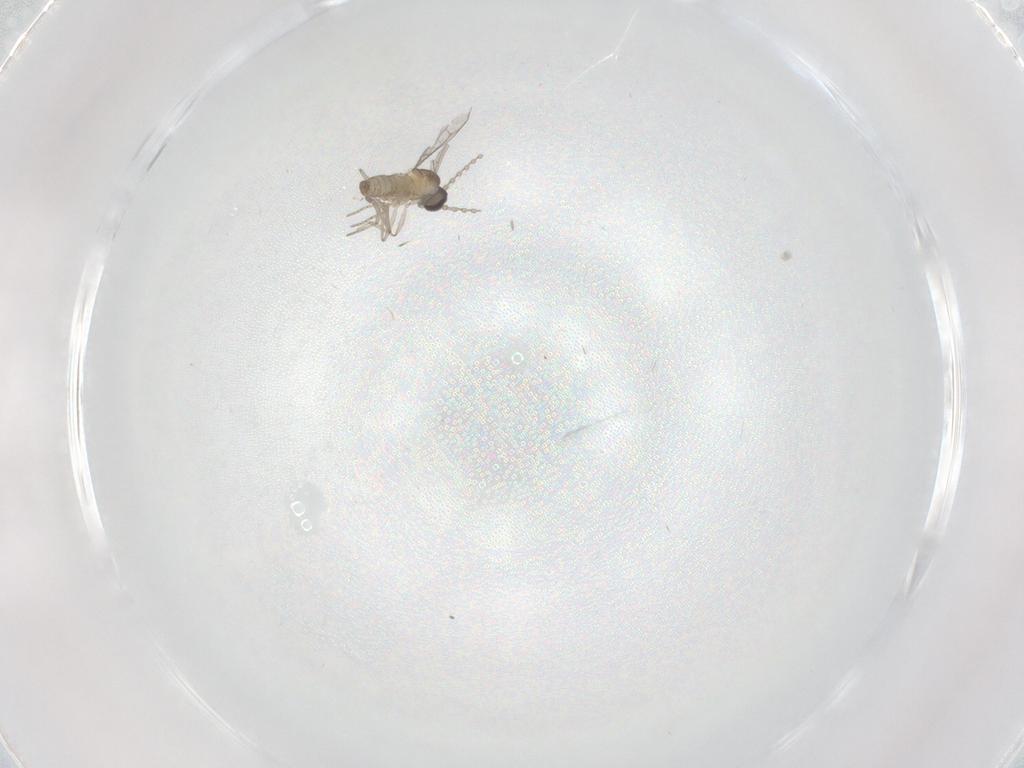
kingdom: Animalia
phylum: Arthropoda
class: Insecta
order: Diptera
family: Cecidomyiidae
